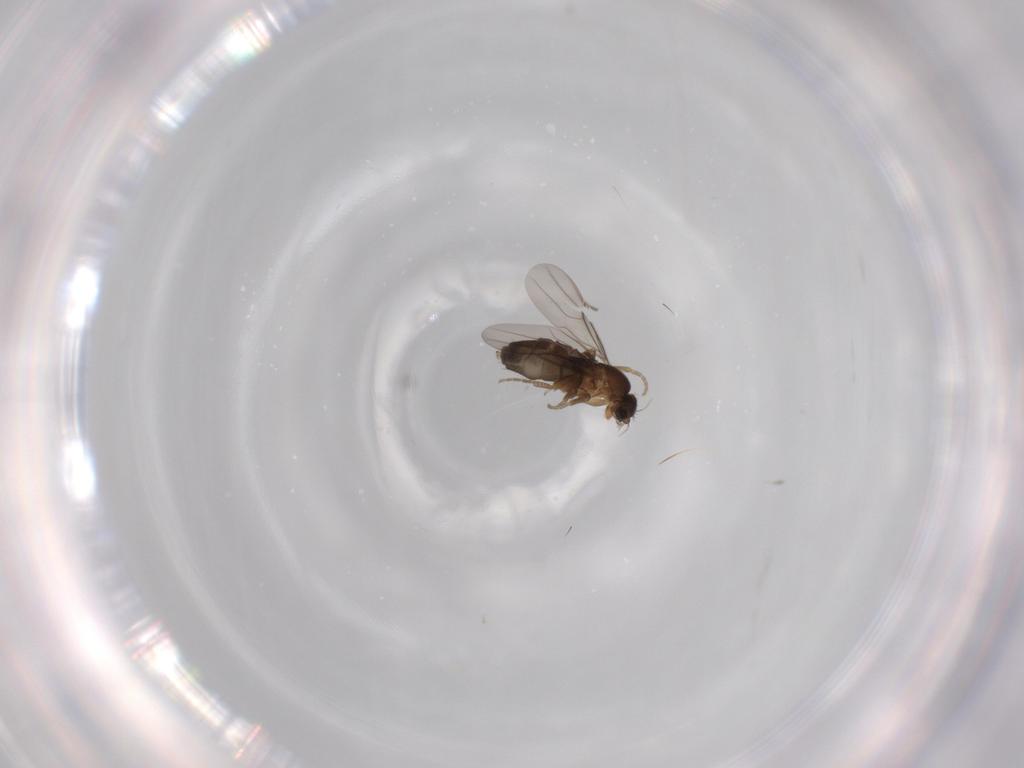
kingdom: Animalia
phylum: Arthropoda
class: Insecta
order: Diptera
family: Phoridae
